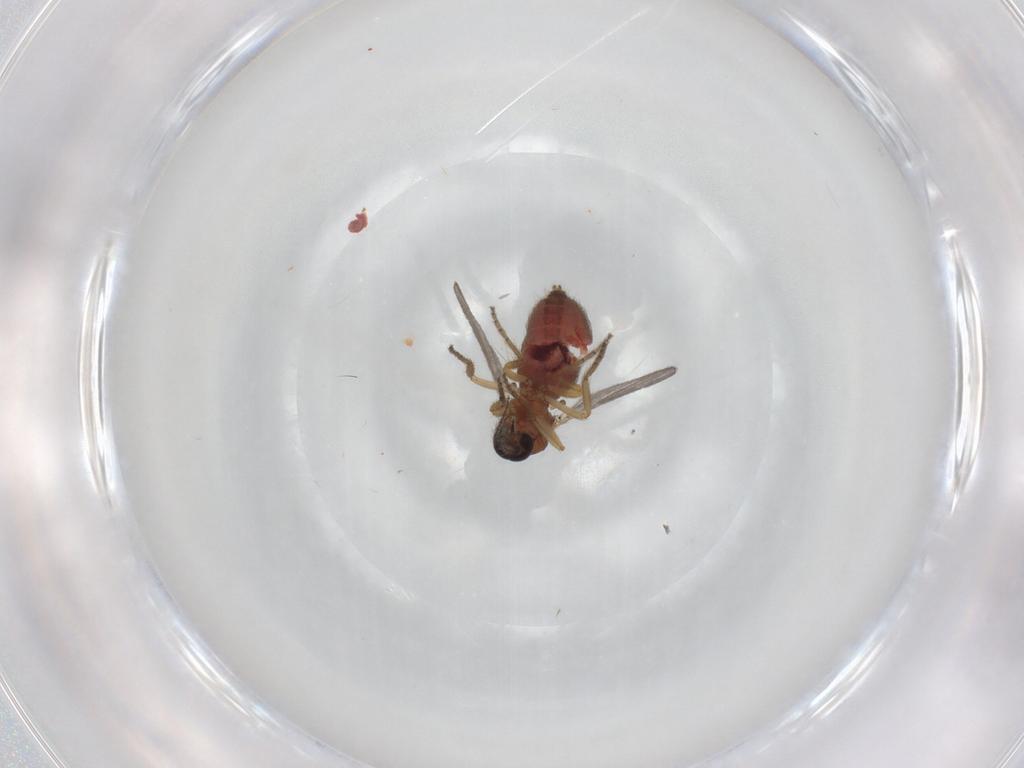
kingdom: Animalia
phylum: Arthropoda
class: Insecta
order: Diptera
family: Ceratopogonidae
